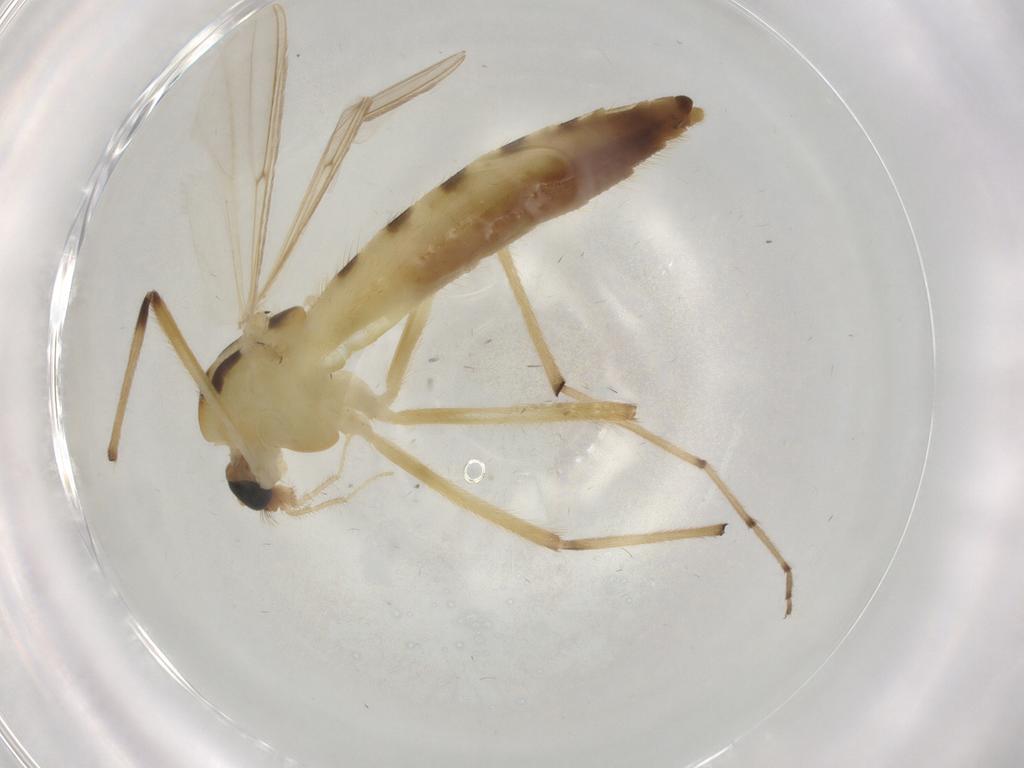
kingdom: Animalia
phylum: Arthropoda
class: Insecta
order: Diptera
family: Chironomidae
